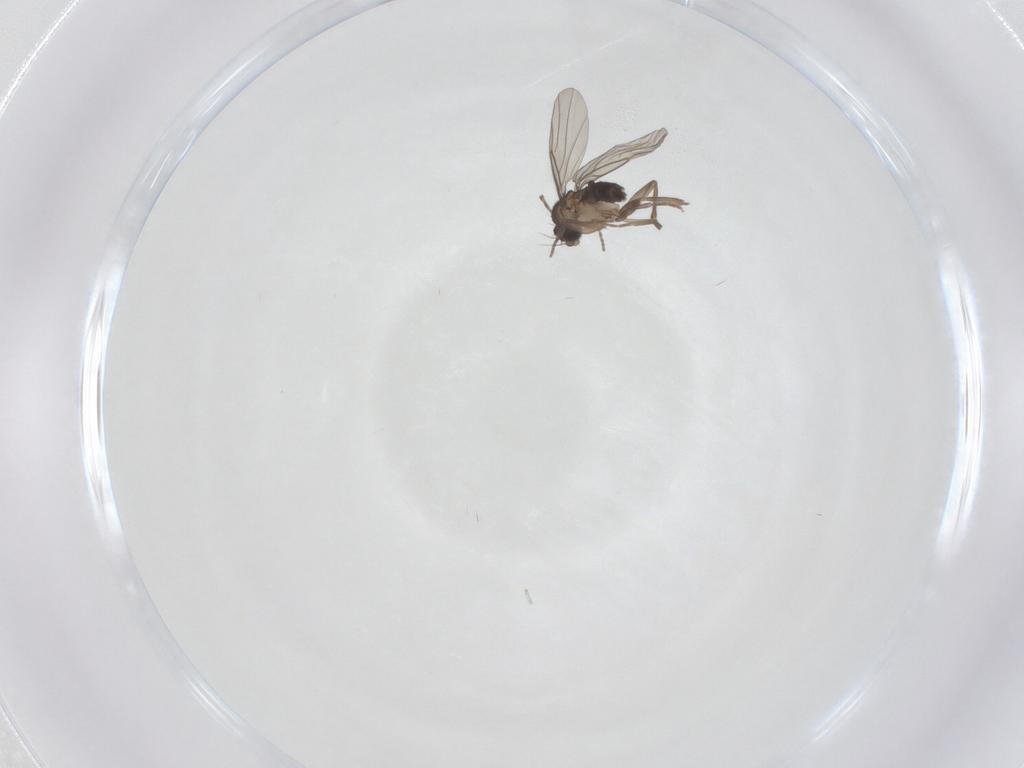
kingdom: Animalia
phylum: Arthropoda
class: Insecta
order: Diptera
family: Phoridae
